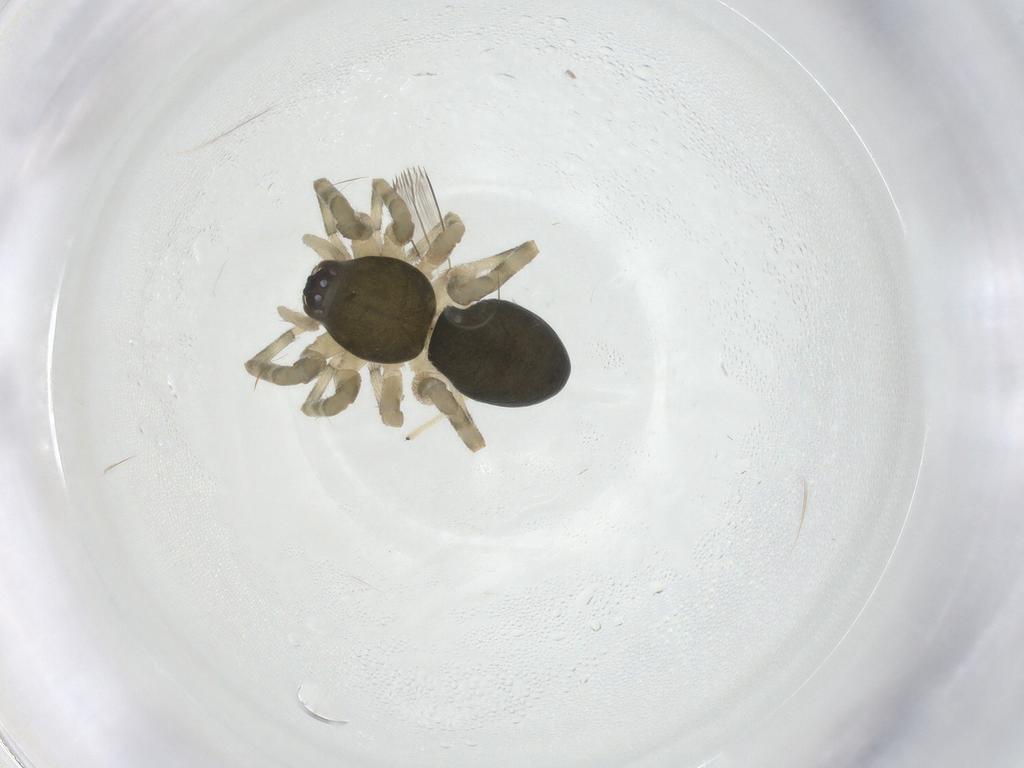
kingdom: Animalia
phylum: Arthropoda
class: Arachnida
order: Araneae
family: Trachelidae
